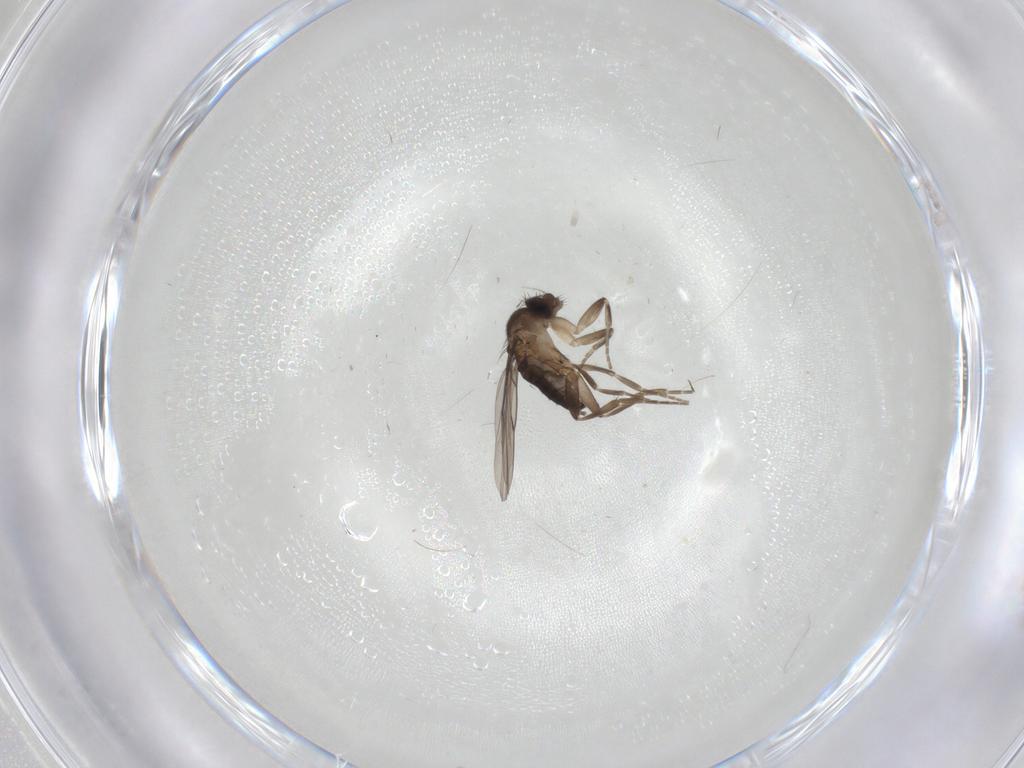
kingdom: Animalia
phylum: Arthropoda
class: Insecta
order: Diptera
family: Phoridae
